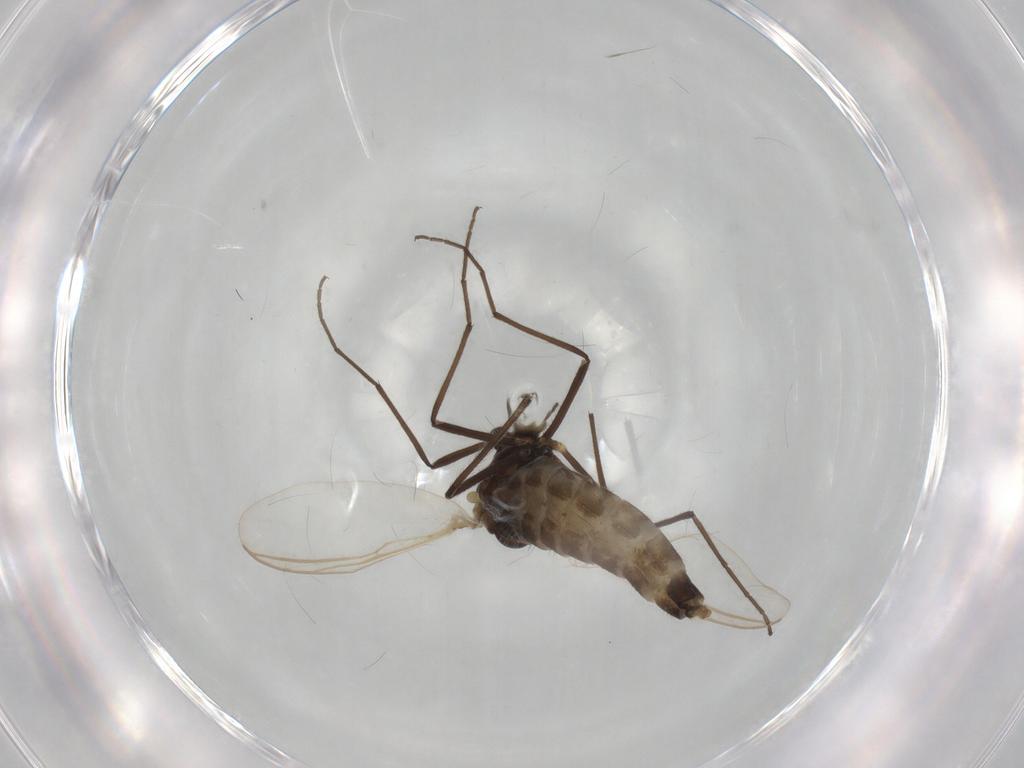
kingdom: Animalia
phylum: Arthropoda
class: Insecta
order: Diptera
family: Chironomidae
